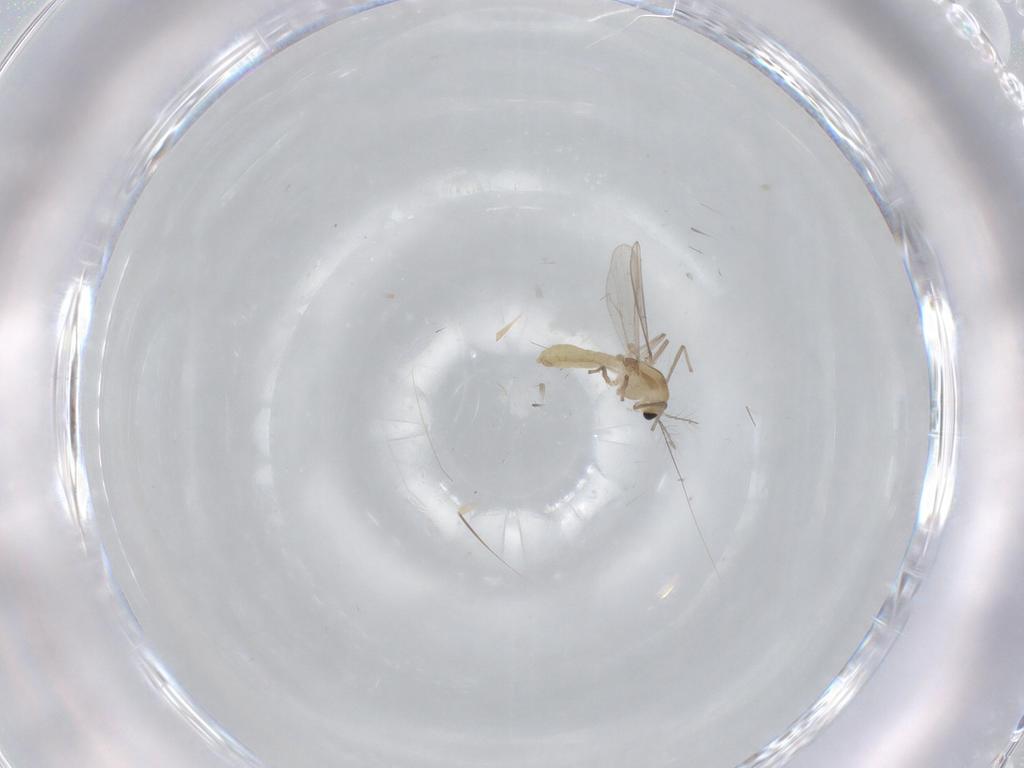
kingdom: Animalia
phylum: Arthropoda
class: Insecta
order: Diptera
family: Chironomidae
